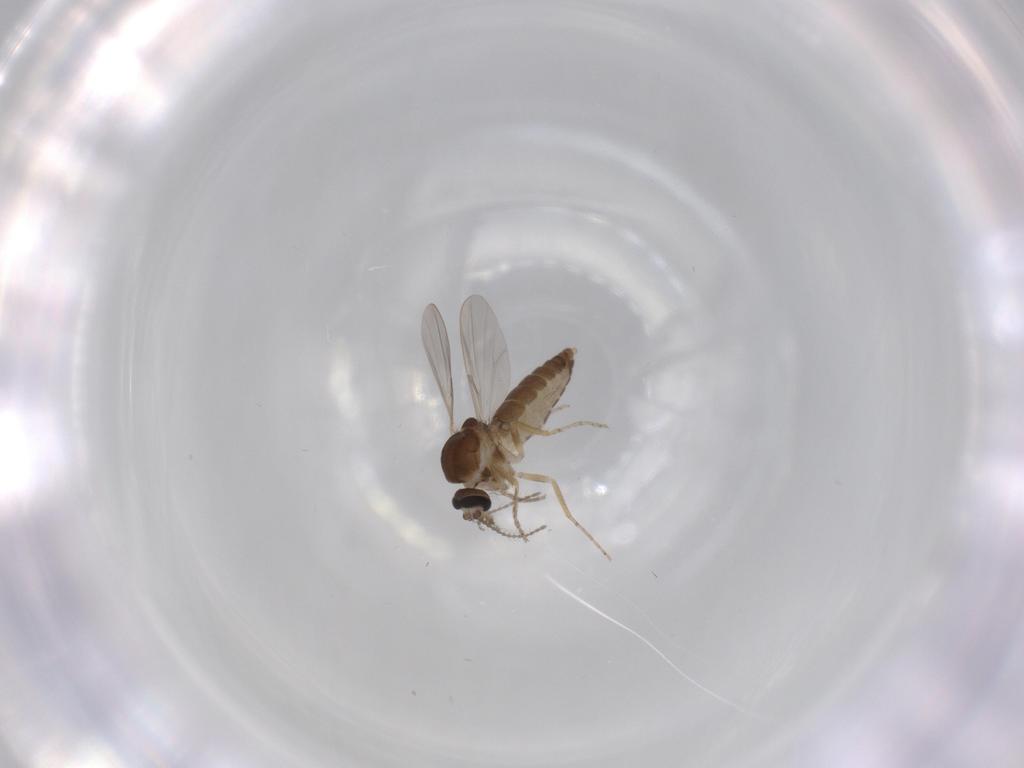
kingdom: Animalia
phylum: Arthropoda
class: Insecta
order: Diptera
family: Ceratopogonidae
